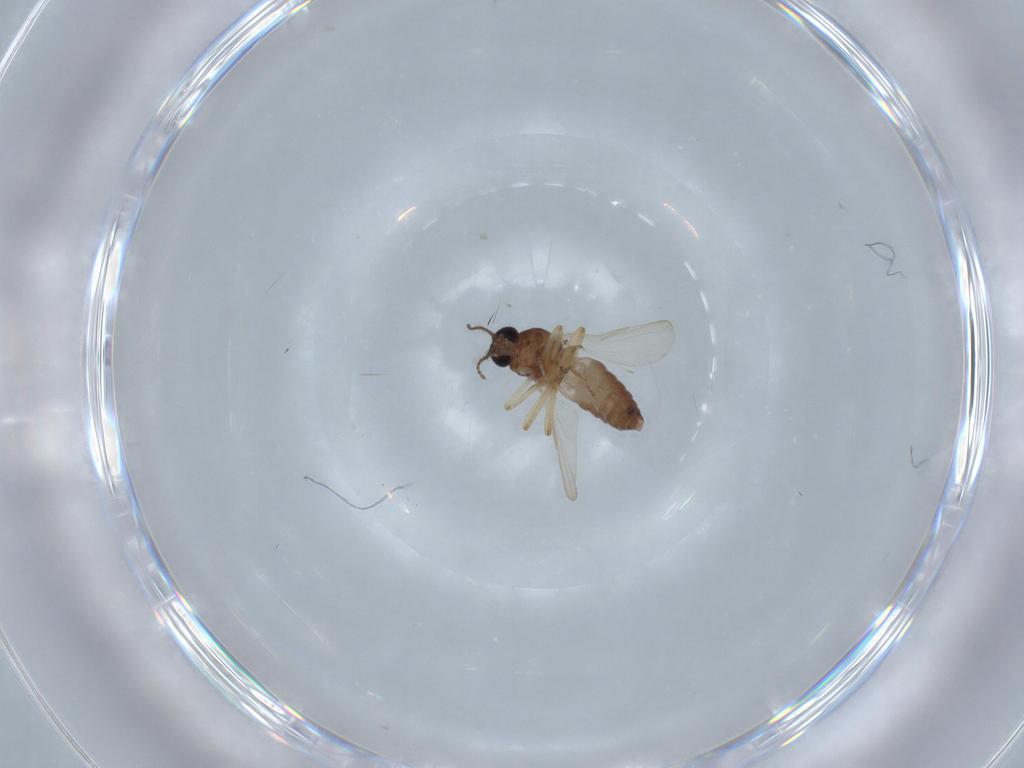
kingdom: Animalia
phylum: Arthropoda
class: Insecta
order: Diptera
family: Ceratopogonidae
